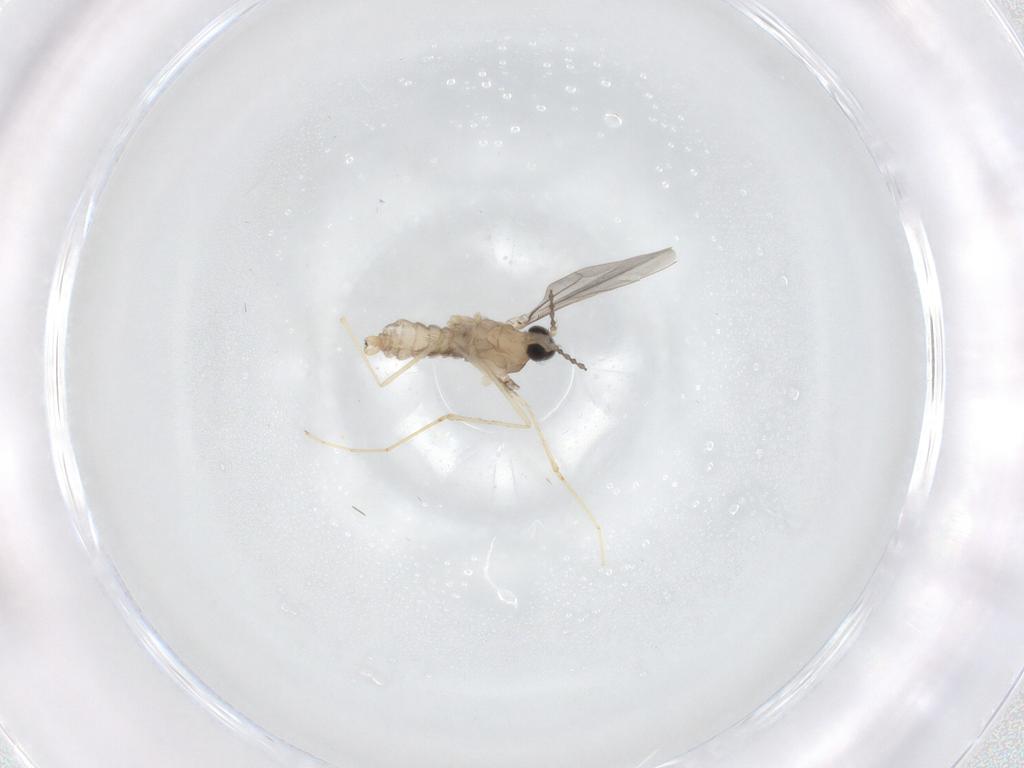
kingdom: Animalia
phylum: Arthropoda
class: Insecta
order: Diptera
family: Cecidomyiidae
